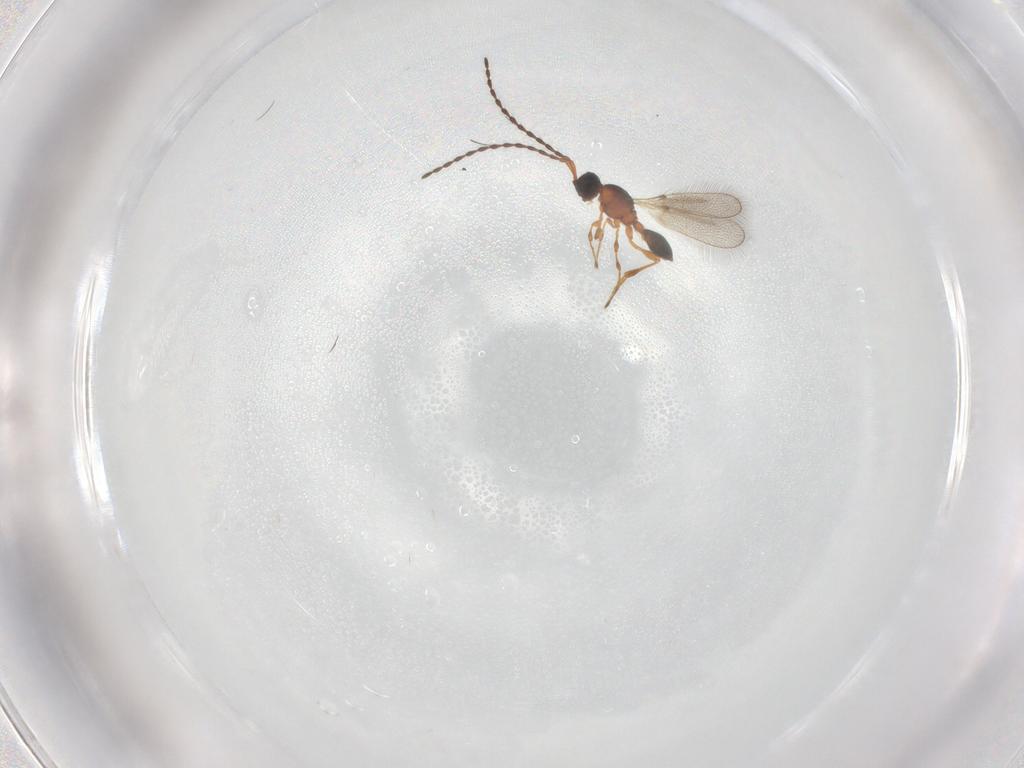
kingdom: Animalia
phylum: Arthropoda
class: Insecta
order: Hymenoptera
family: Diapriidae
